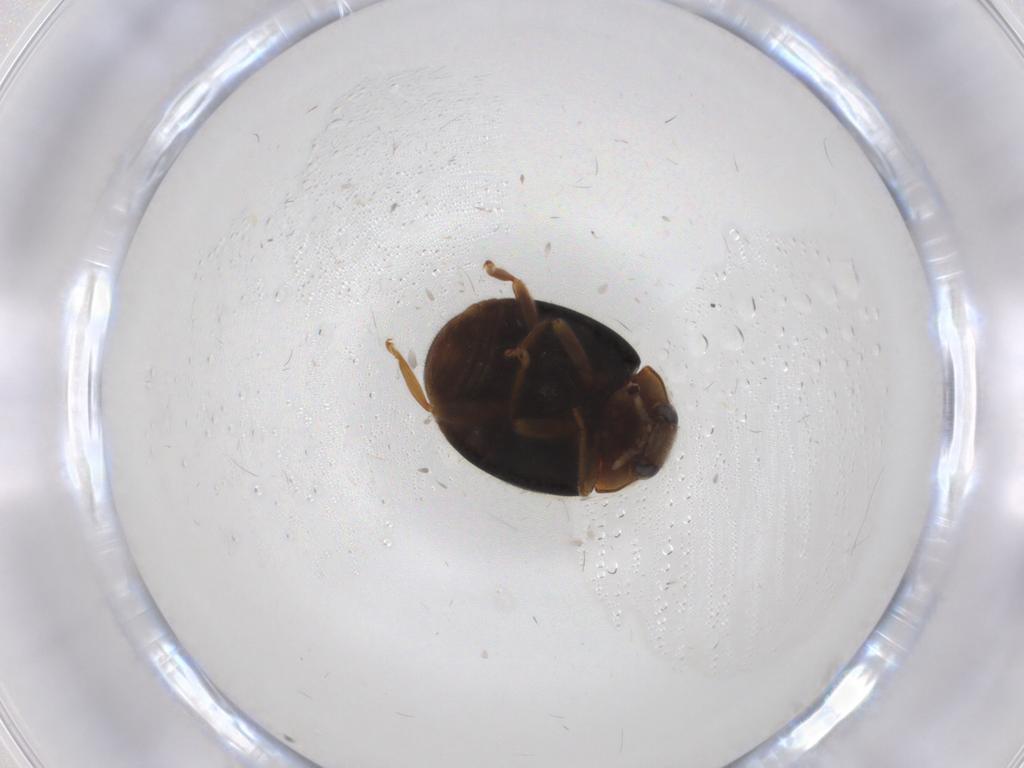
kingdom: Animalia
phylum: Arthropoda
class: Insecta
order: Coleoptera
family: Coccinellidae
